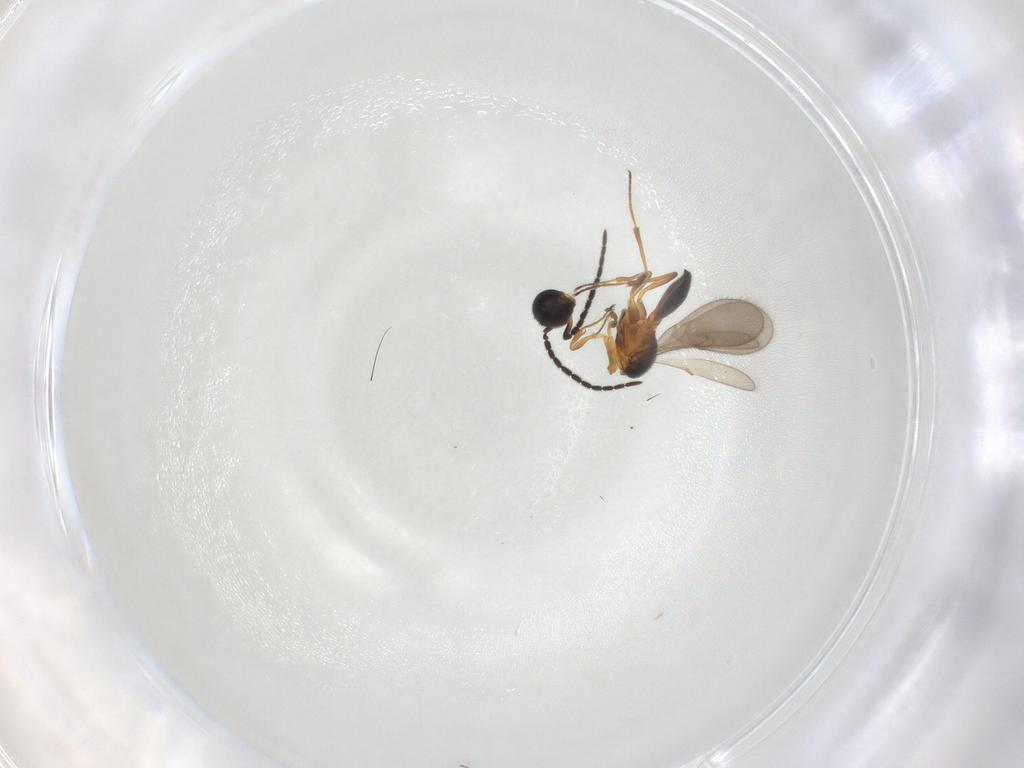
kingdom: Animalia
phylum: Arthropoda
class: Insecta
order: Hymenoptera
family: Scelionidae
